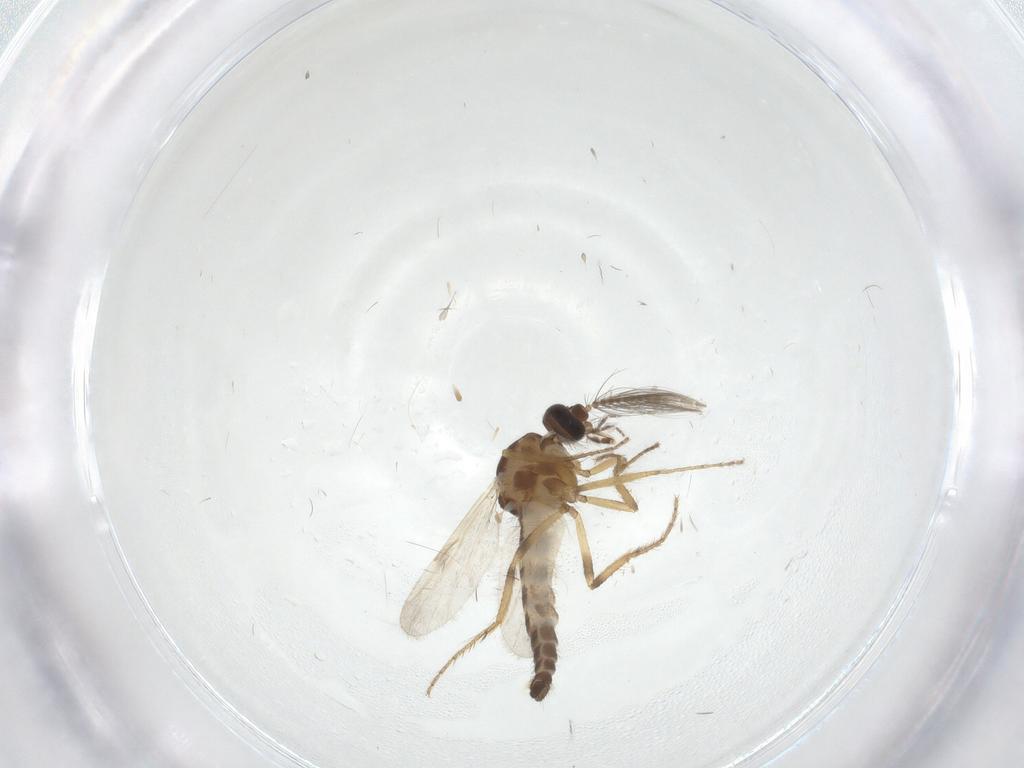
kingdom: Animalia
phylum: Arthropoda
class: Insecta
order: Diptera
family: Ceratopogonidae
